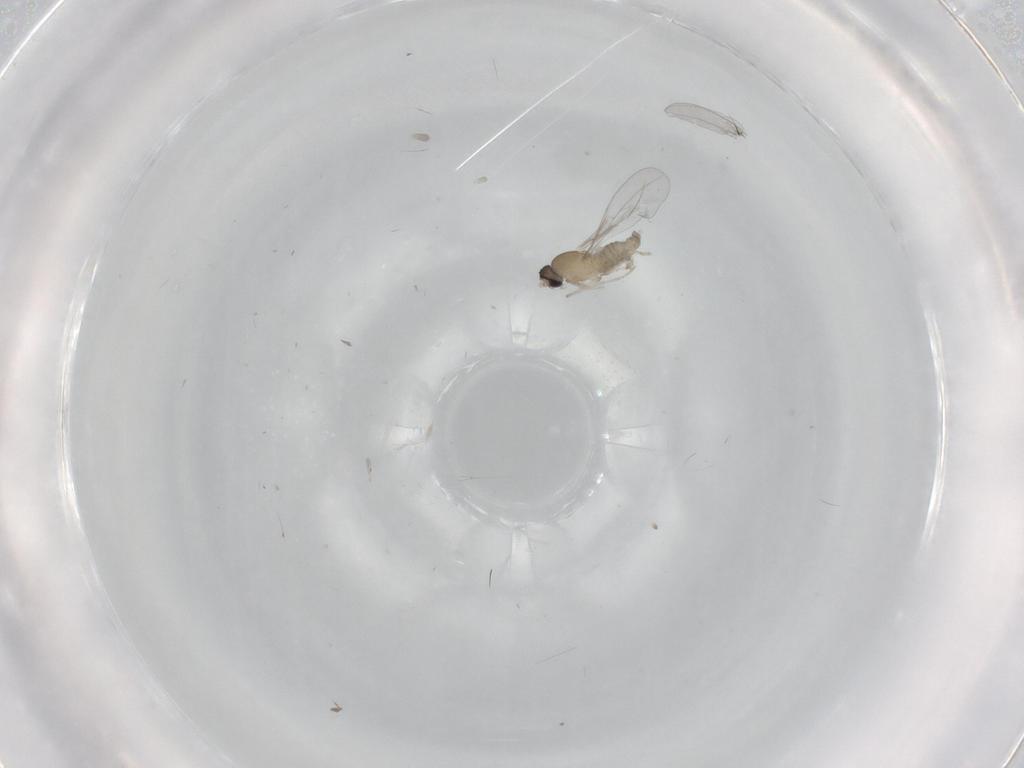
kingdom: Animalia
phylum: Arthropoda
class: Insecta
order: Diptera
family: Cecidomyiidae
